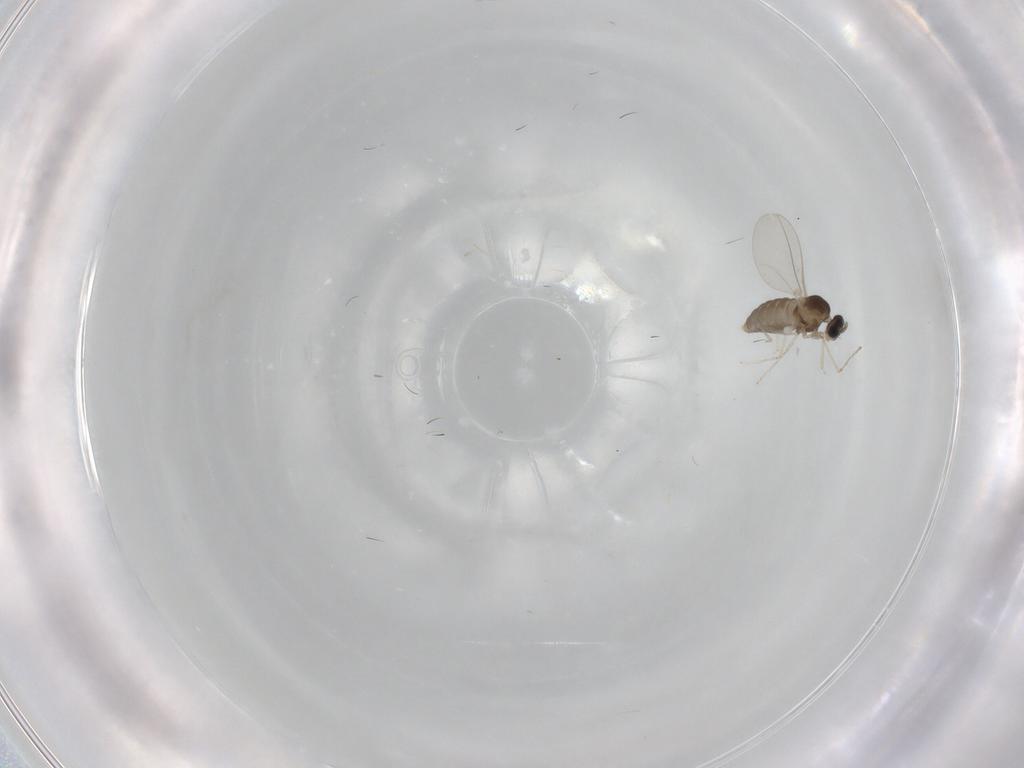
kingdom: Animalia
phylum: Arthropoda
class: Insecta
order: Diptera
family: Cecidomyiidae
